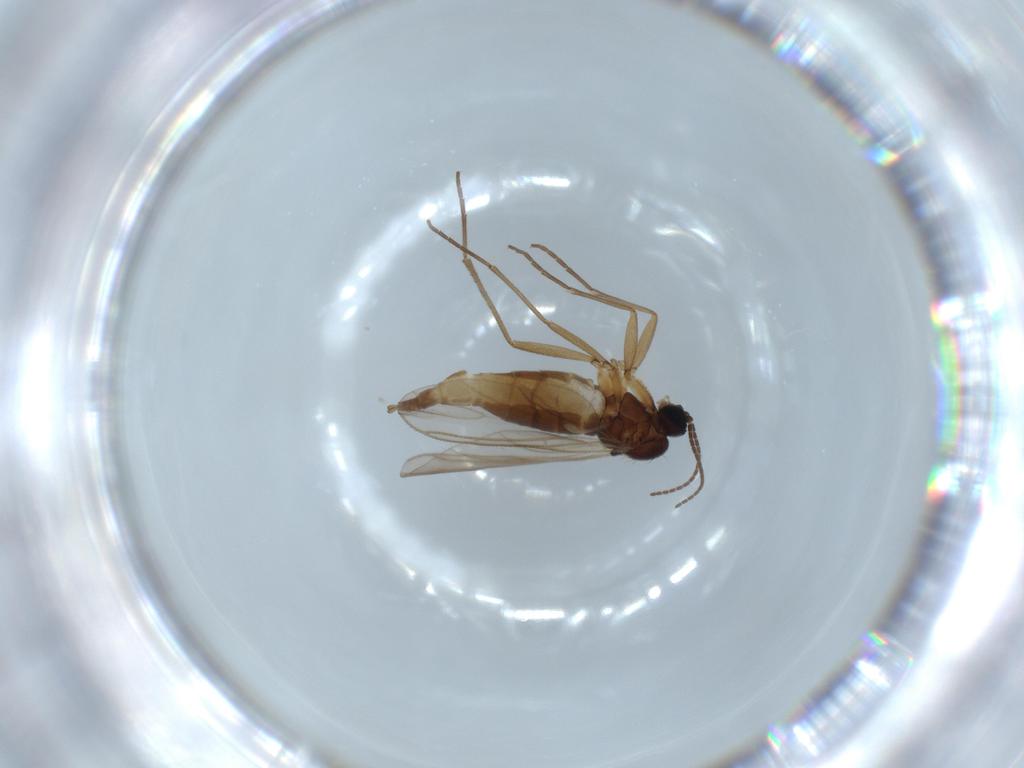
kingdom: Animalia
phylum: Arthropoda
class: Insecta
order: Diptera
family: Sciaridae
